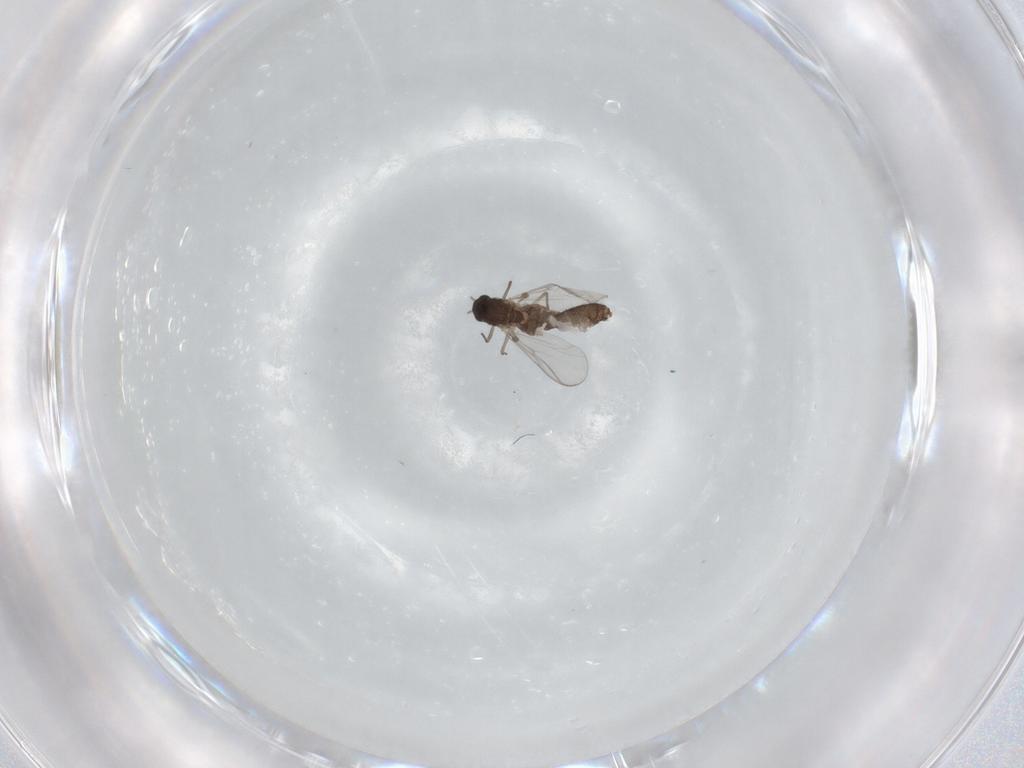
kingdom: Animalia
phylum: Arthropoda
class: Insecta
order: Diptera
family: Chironomidae
